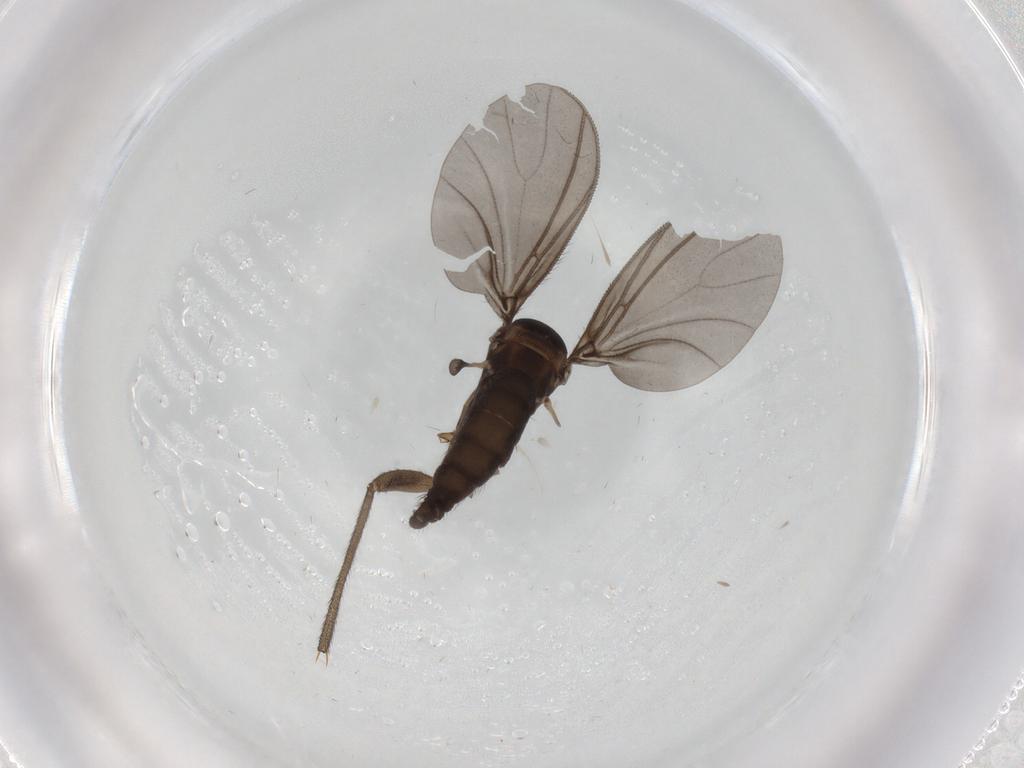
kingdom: Animalia
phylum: Arthropoda
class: Insecta
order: Diptera
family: Sciaridae
